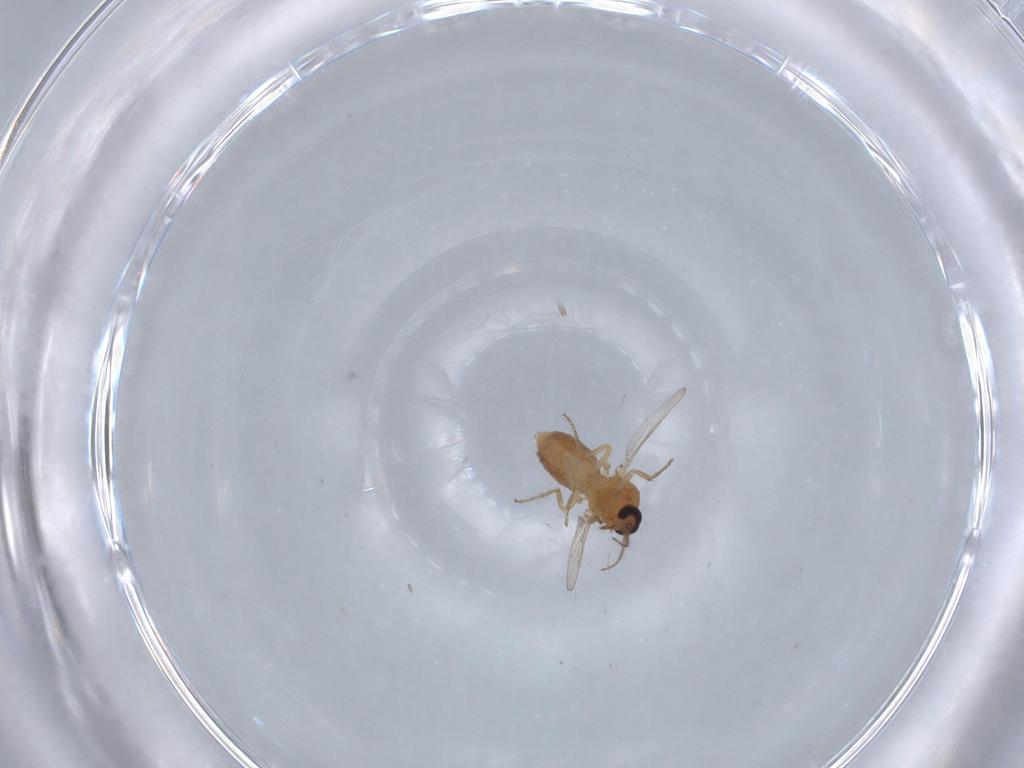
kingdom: Animalia
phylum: Arthropoda
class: Insecta
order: Diptera
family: Ceratopogonidae
